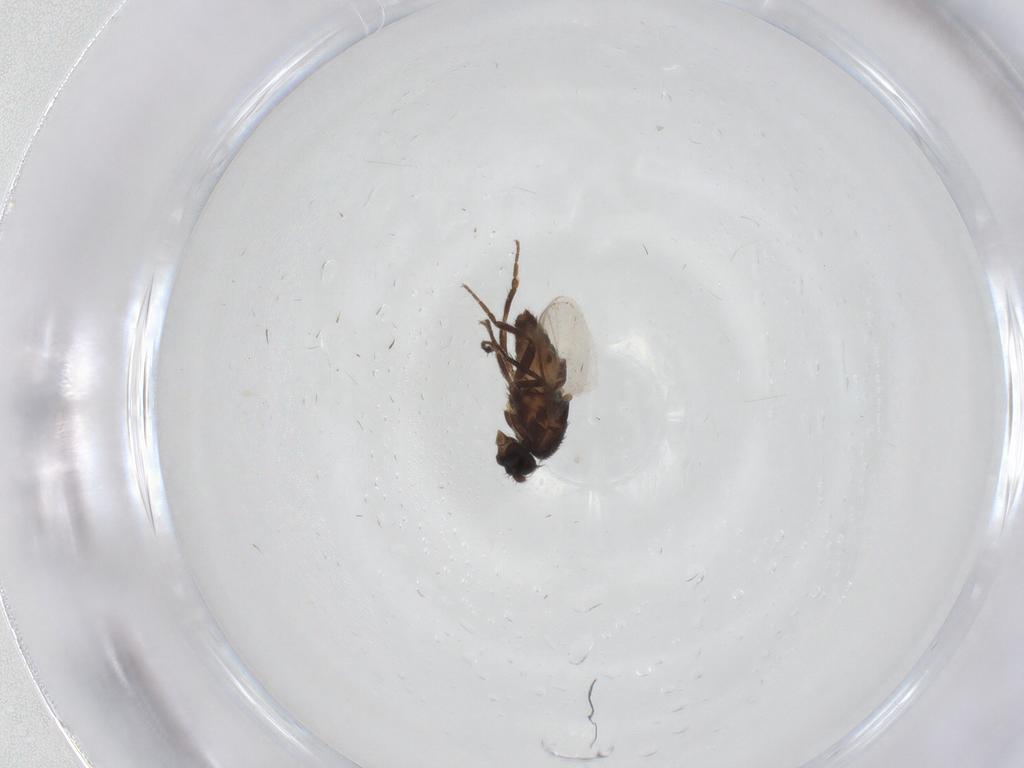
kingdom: Animalia
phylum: Arthropoda
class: Insecta
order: Diptera
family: Sphaeroceridae
